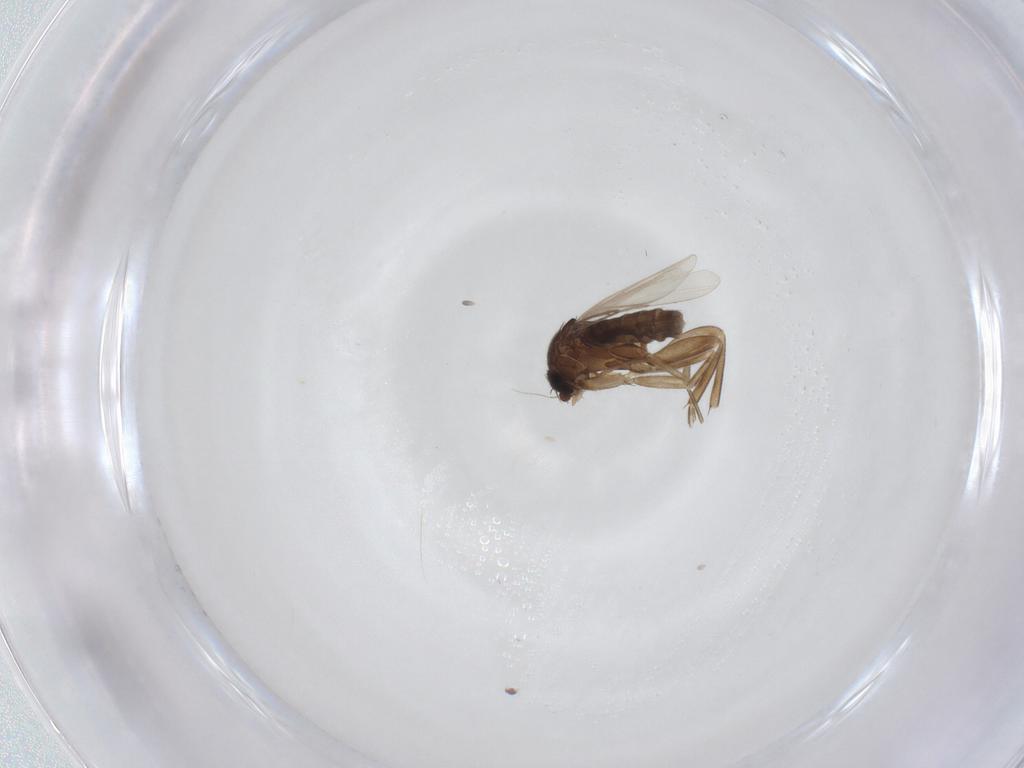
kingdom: Animalia
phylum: Arthropoda
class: Insecta
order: Diptera
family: Phoridae
